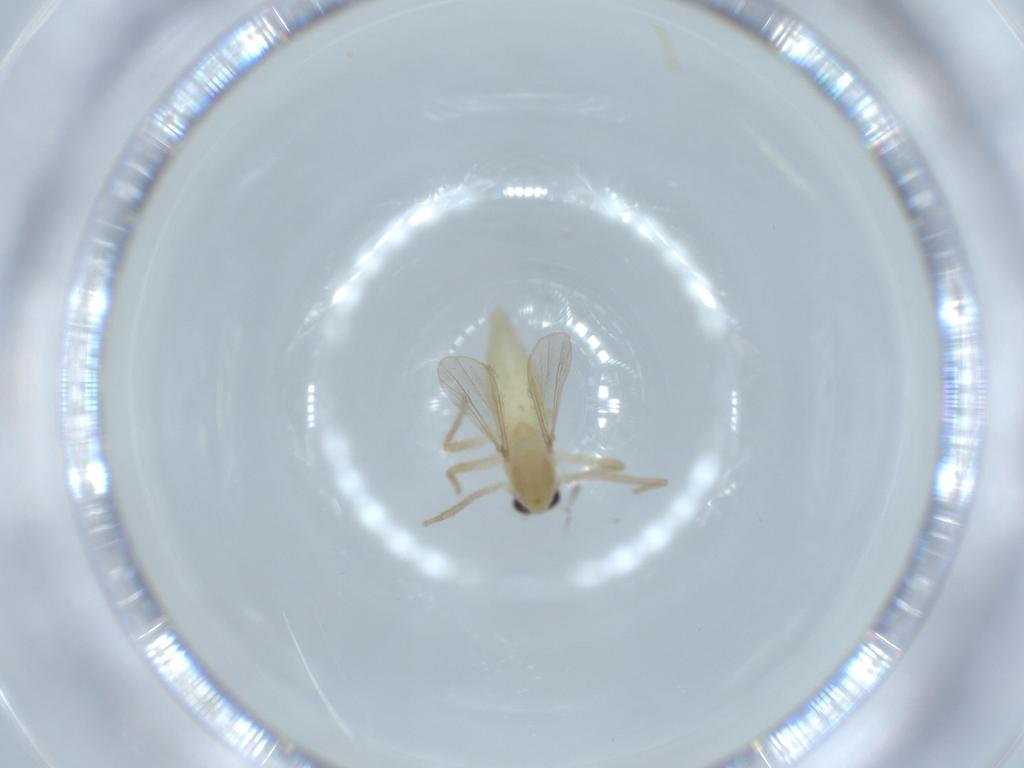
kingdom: Animalia
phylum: Arthropoda
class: Insecta
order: Diptera
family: Chironomidae
